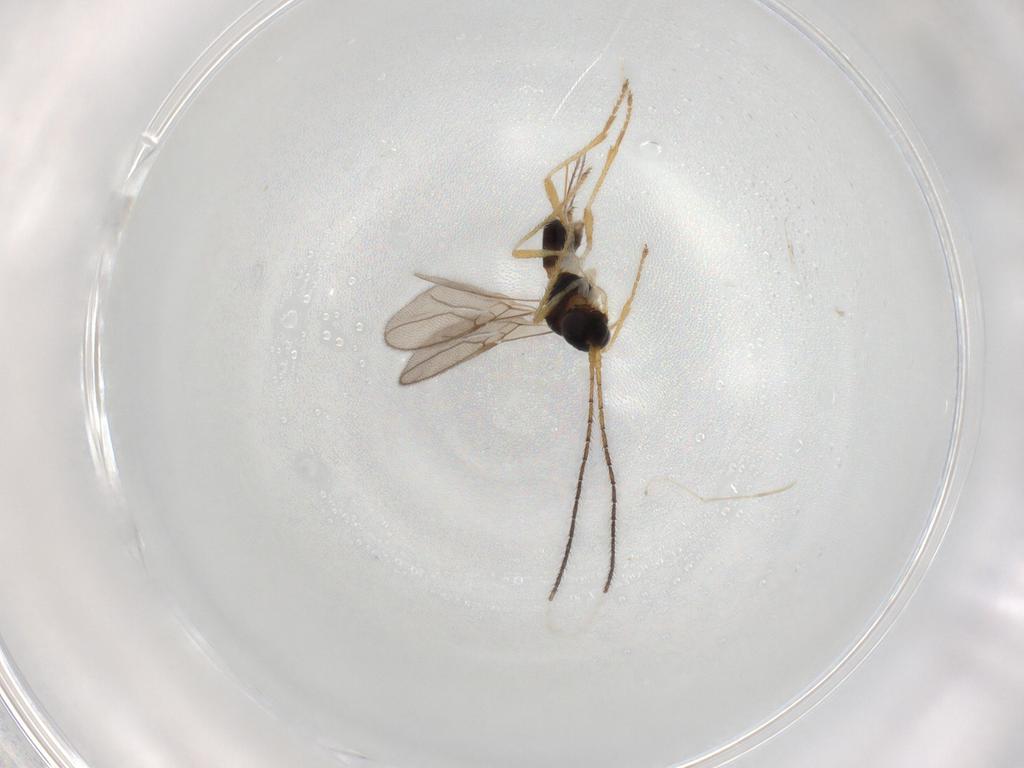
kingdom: Animalia
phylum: Arthropoda
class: Insecta
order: Hymenoptera
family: Braconidae
